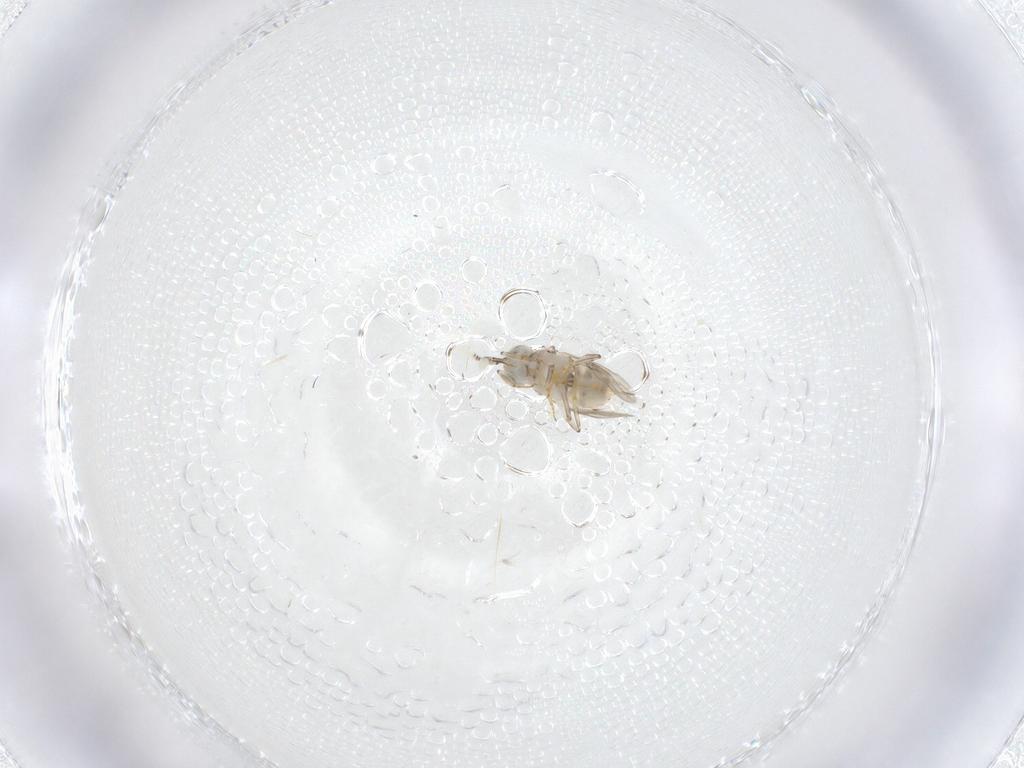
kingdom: Animalia
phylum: Arthropoda
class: Insecta
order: Hymenoptera
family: Encyrtidae
